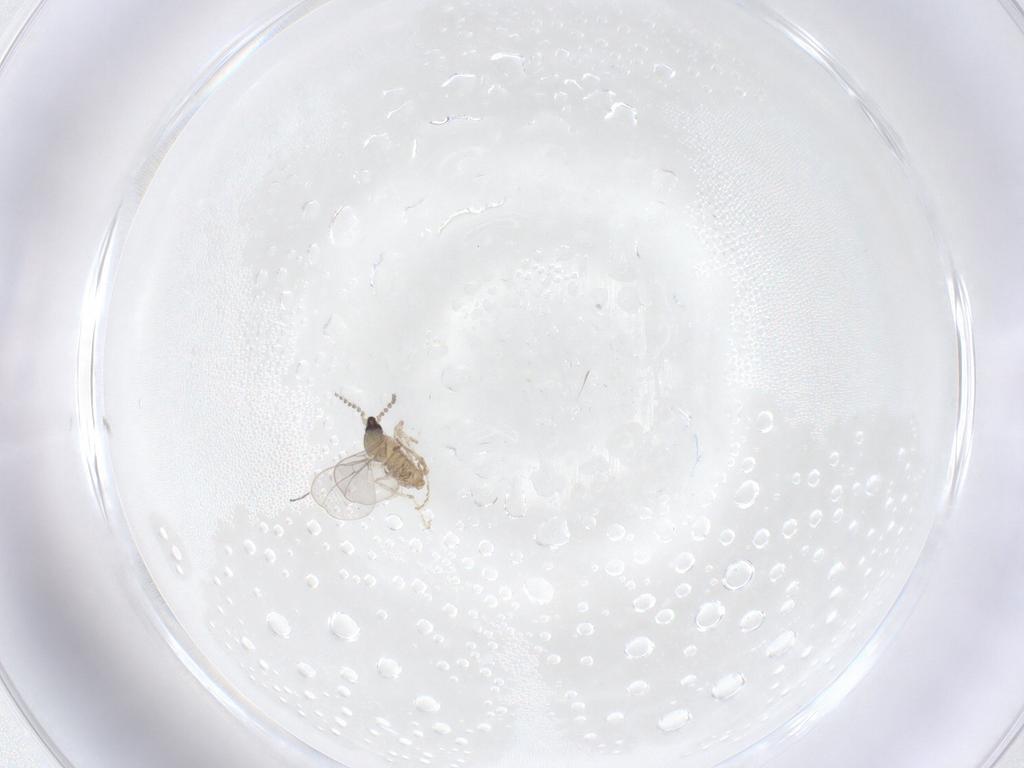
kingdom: Animalia
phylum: Arthropoda
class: Insecta
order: Diptera
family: Cecidomyiidae
